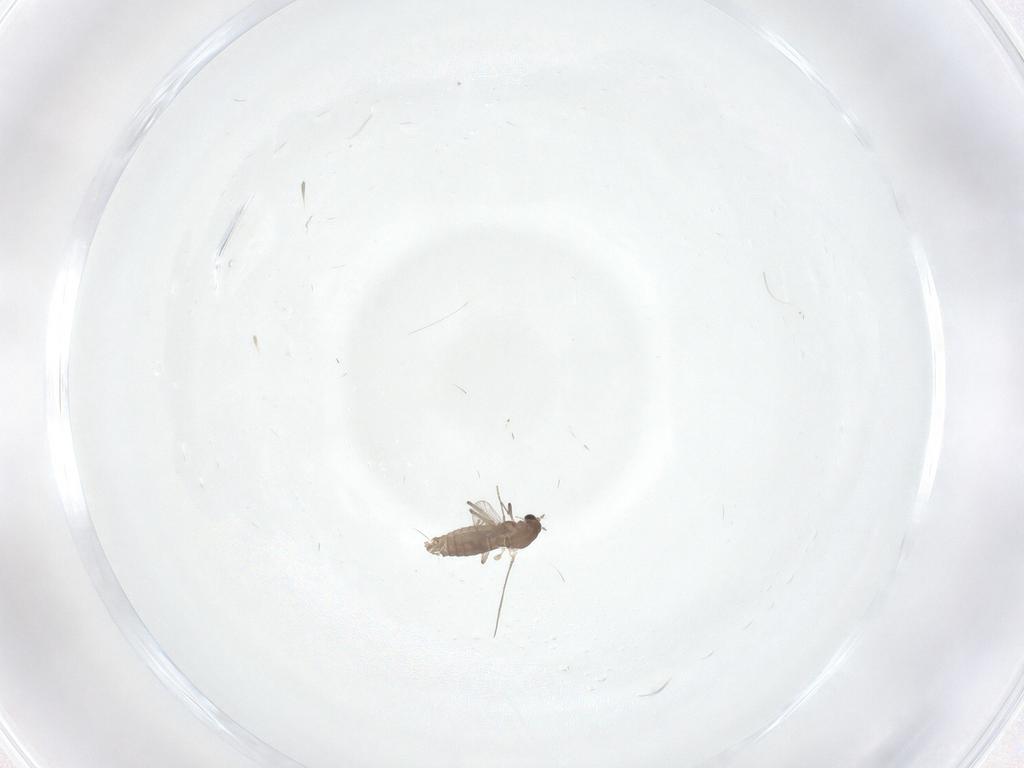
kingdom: Animalia
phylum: Arthropoda
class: Insecta
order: Diptera
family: Chironomidae
